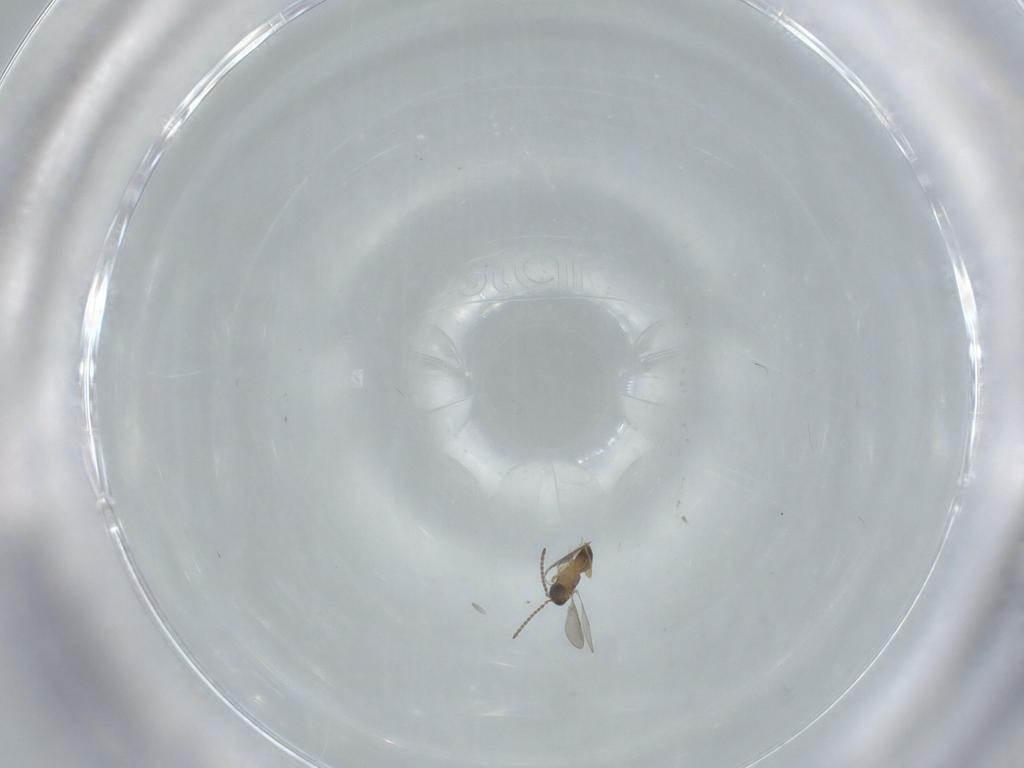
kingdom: Animalia
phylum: Arthropoda
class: Insecta
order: Hymenoptera
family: Ceraphronidae
